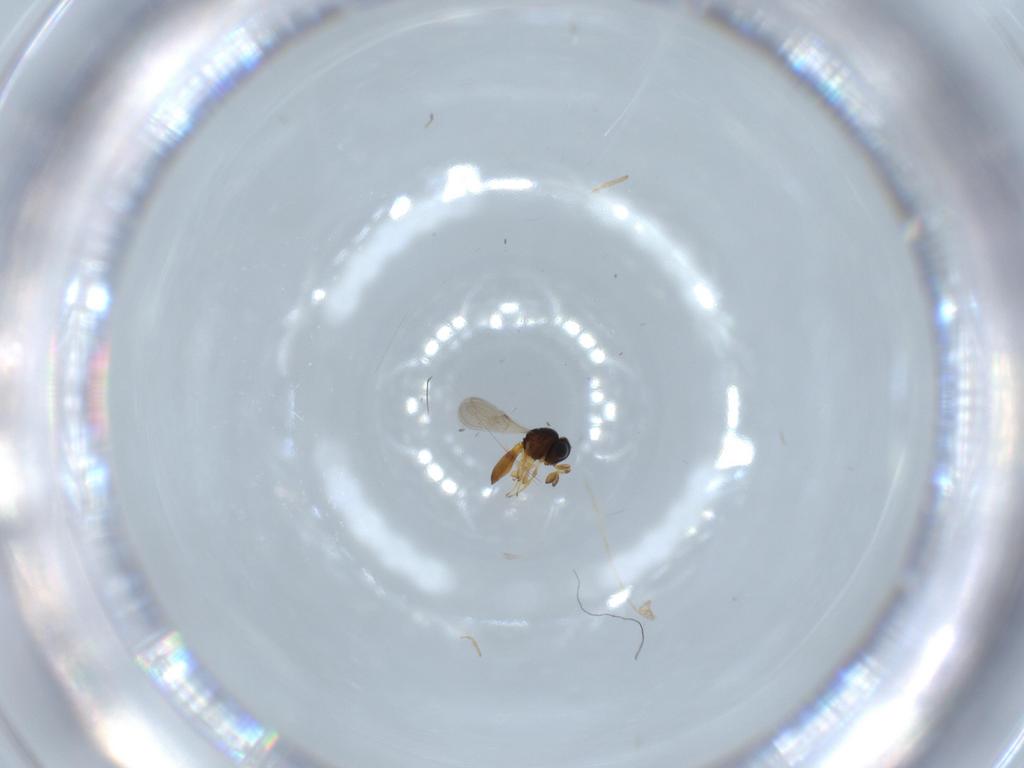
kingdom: Animalia
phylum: Arthropoda
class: Insecta
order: Hymenoptera
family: Scelionidae
